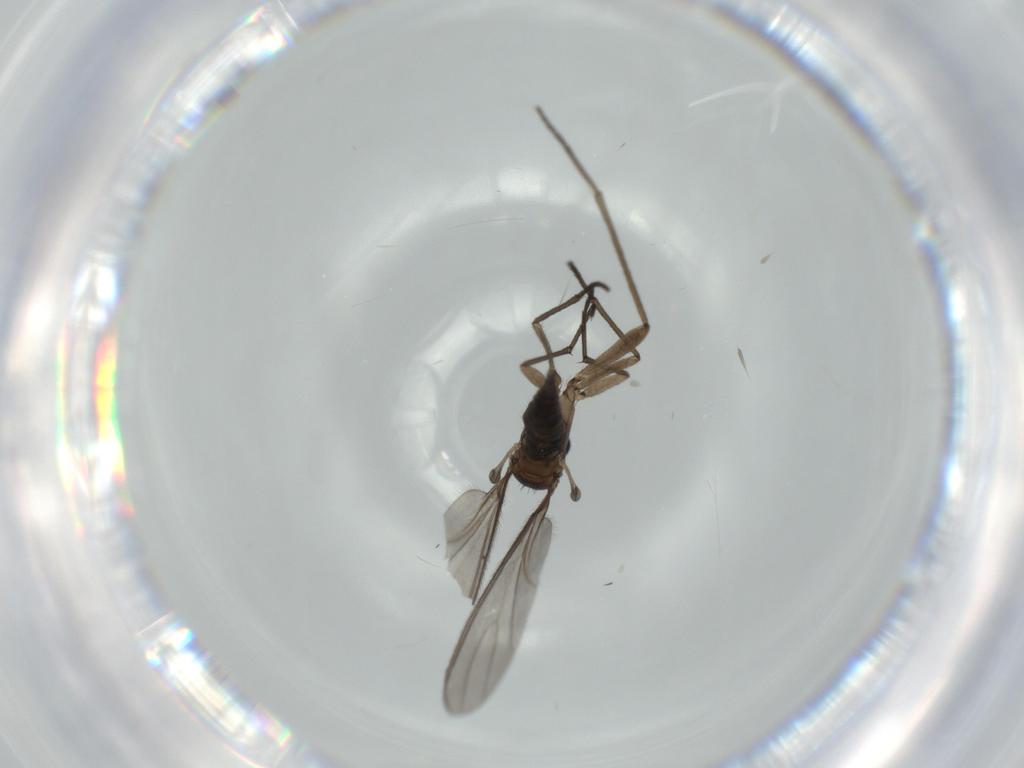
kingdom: Animalia
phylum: Arthropoda
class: Insecta
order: Diptera
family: Sciaridae
